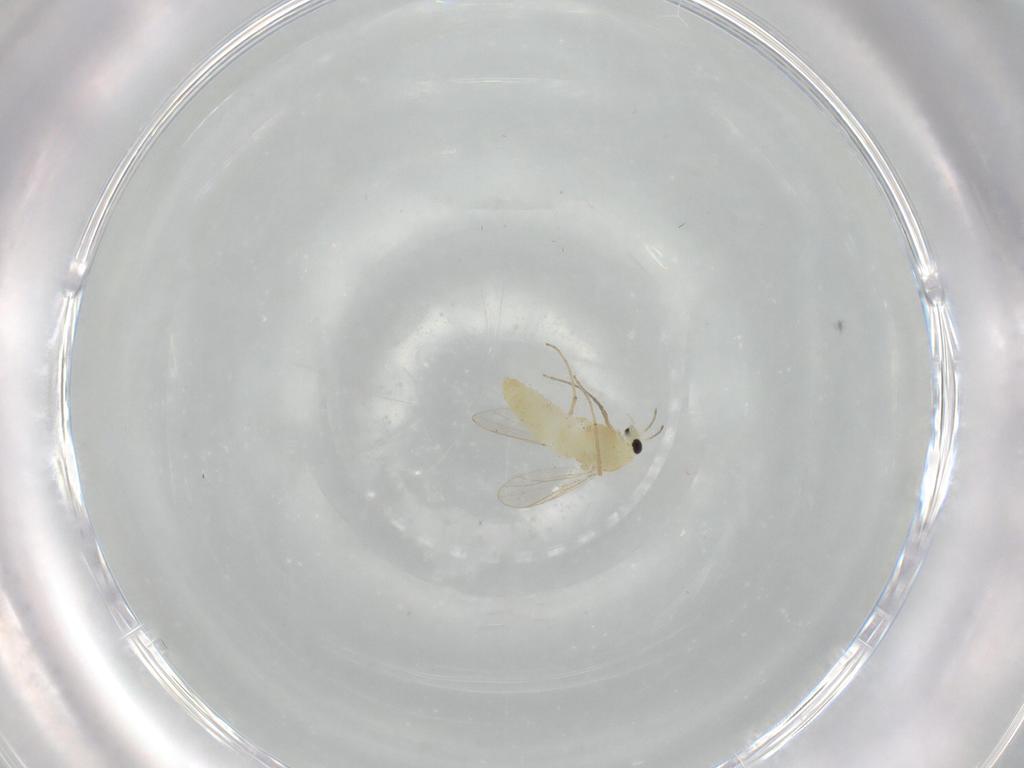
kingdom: Animalia
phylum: Arthropoda
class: Insecta
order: Diptera
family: Chironomidae
